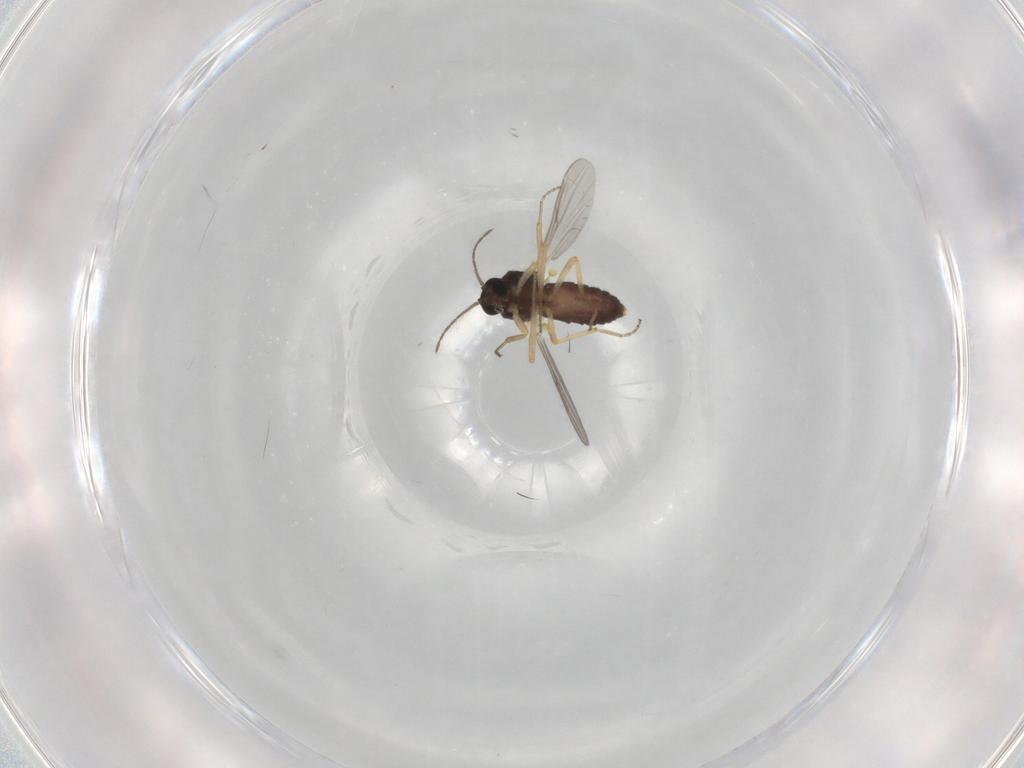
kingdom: Animalia
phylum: Arthropoda
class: Insecta
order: Diptera
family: Ceratopogonidae
